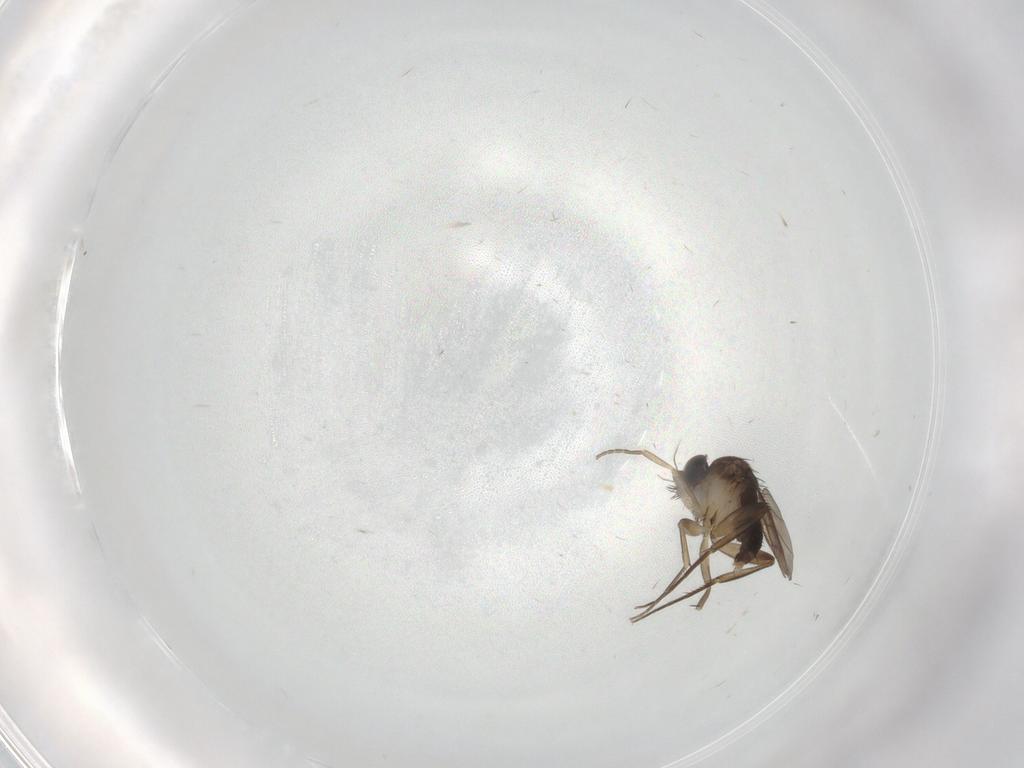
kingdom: Animalia
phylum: Arthropoda
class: Insecta
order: Diptera
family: Phoridae
